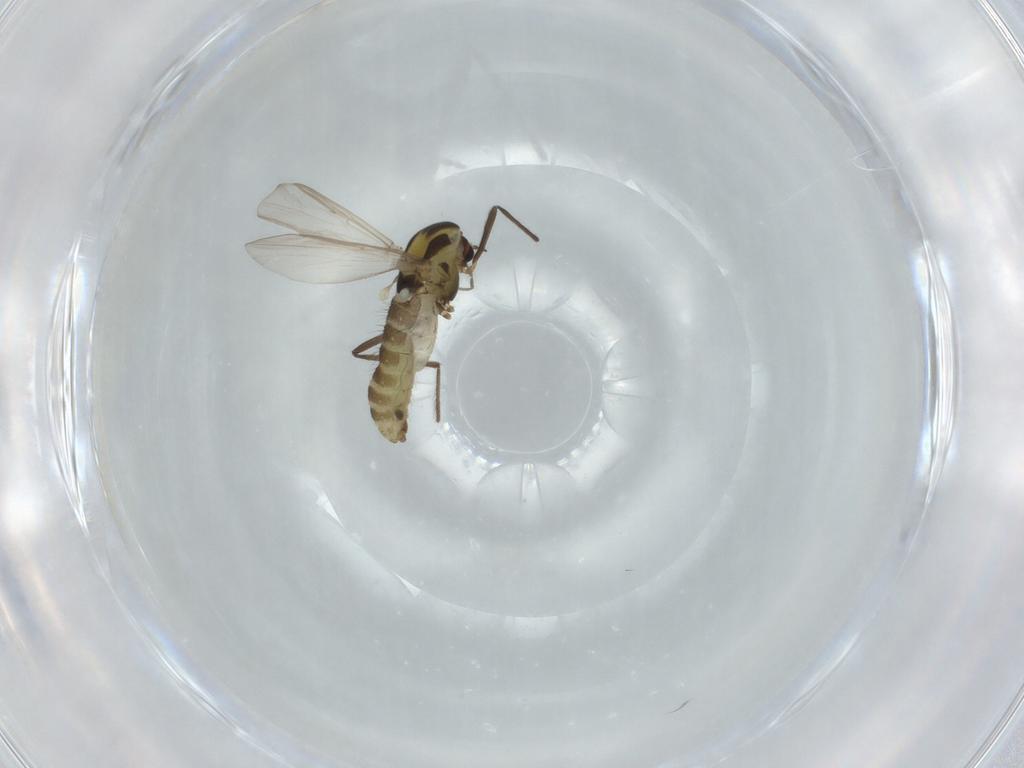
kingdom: Animalia
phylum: Arthropoda
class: Insecta
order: Diptera
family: Chironomidae
